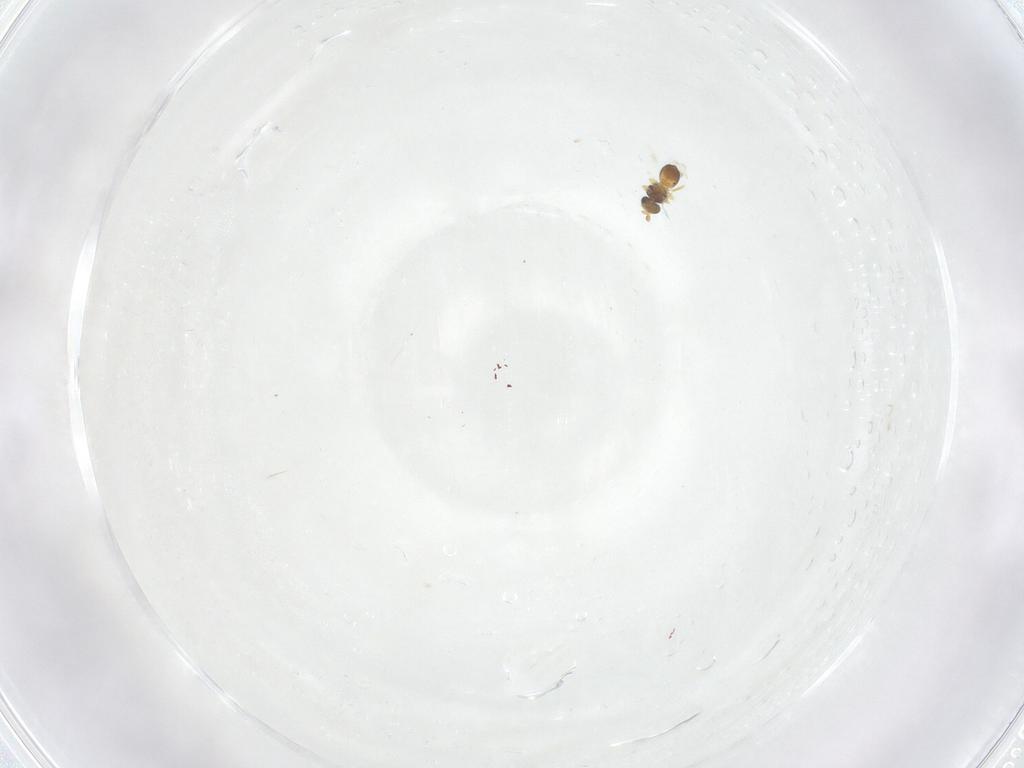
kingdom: Animalia
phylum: Arthropoda
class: Insecta
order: Hymenoptera
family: Platygastridae
